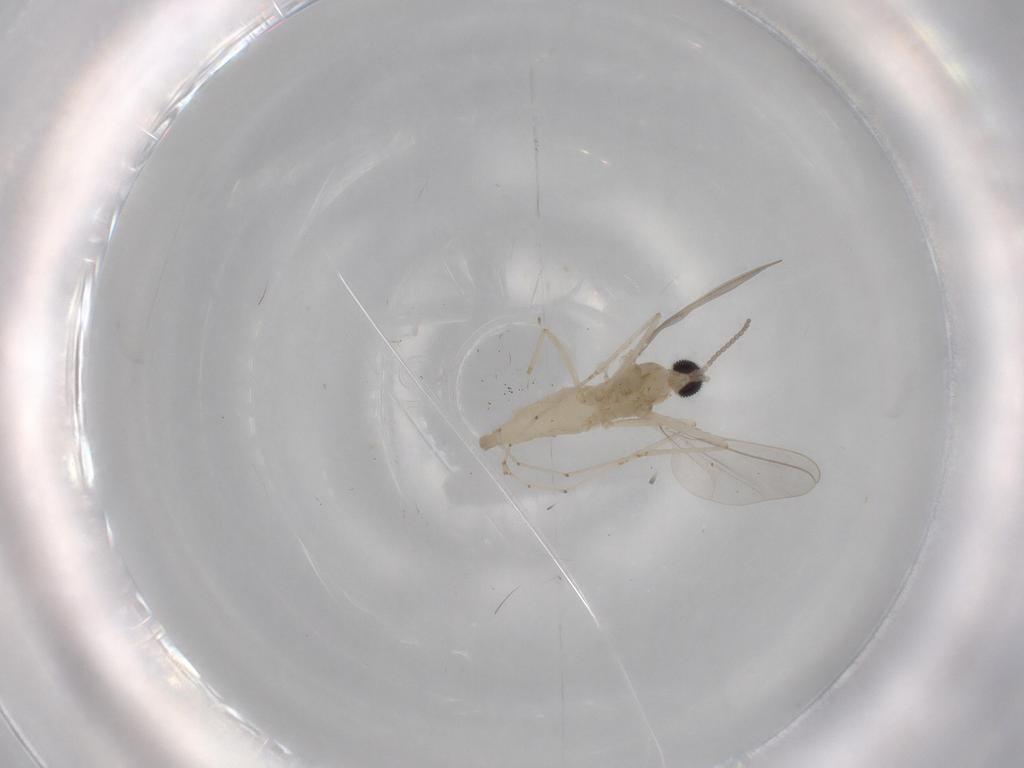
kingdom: Animalia
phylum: Arthropoda
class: Insecta
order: Diptera
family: Cecidomyiidae
